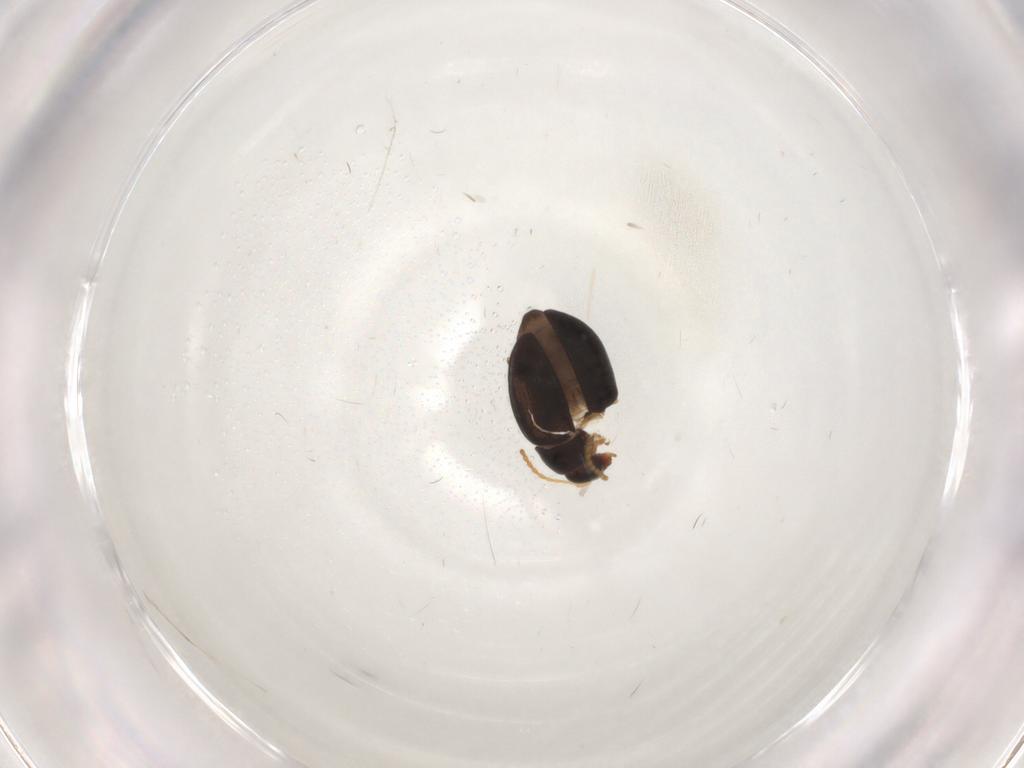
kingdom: Animalia
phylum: Arthropoda
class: Insecta
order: Coleoptera
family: Chrysomelidae
